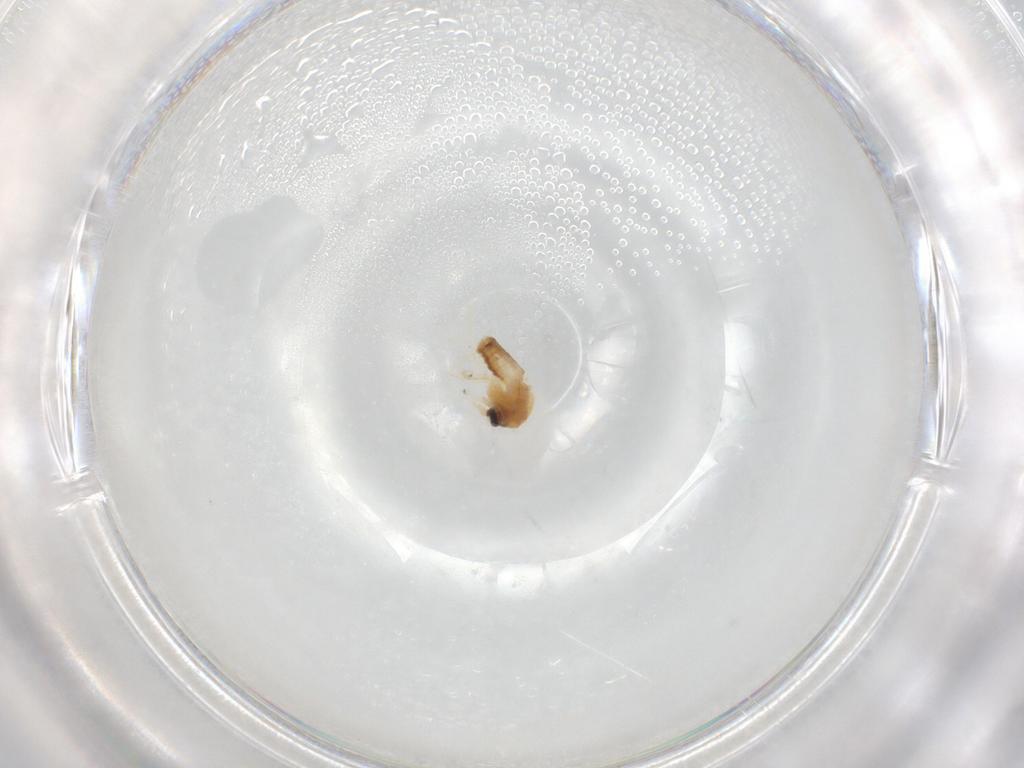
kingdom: Animalia
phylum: Arthropoda
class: Insecta
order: Diptera
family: Ceratopogonidae
